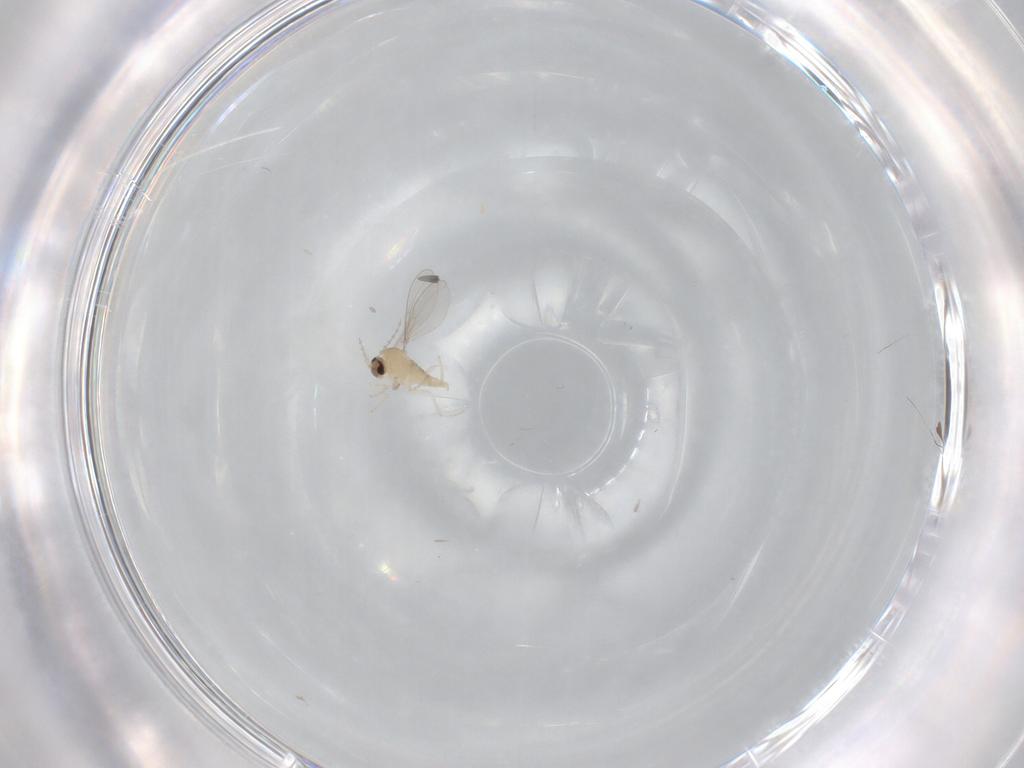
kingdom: Animalia
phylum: Arthropoda
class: Insecta
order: Diptera
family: Cecidomyiidae
